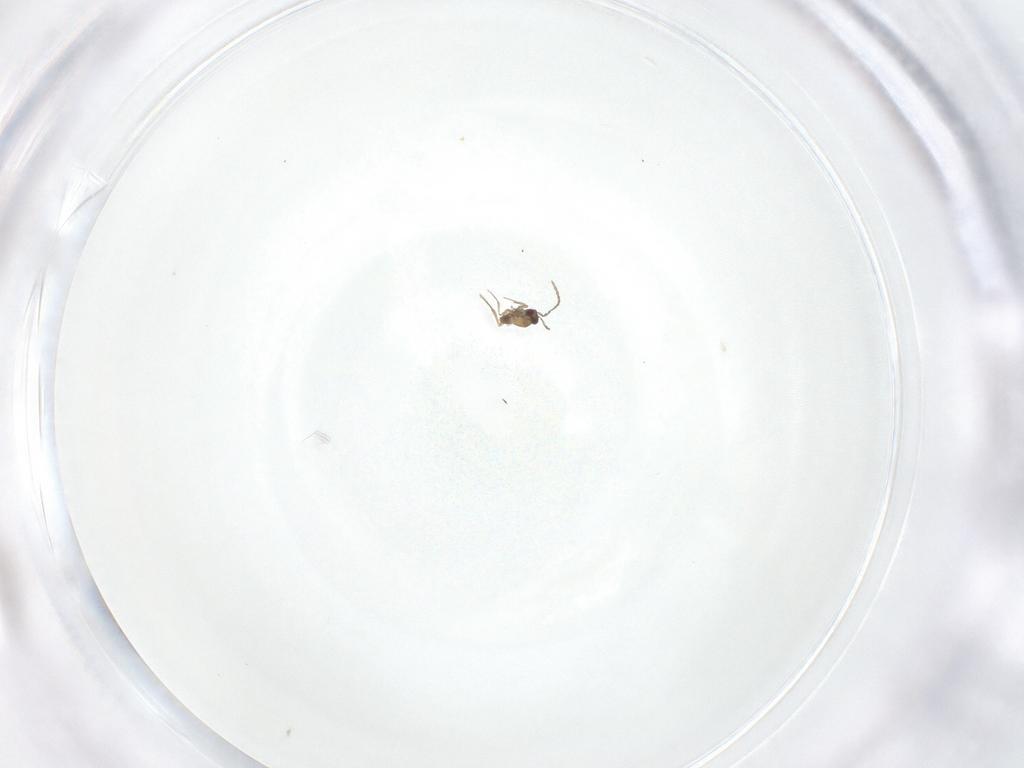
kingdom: Animalia
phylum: Arthropoda
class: Insecta
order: Hymenoptera
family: Mymaridae
